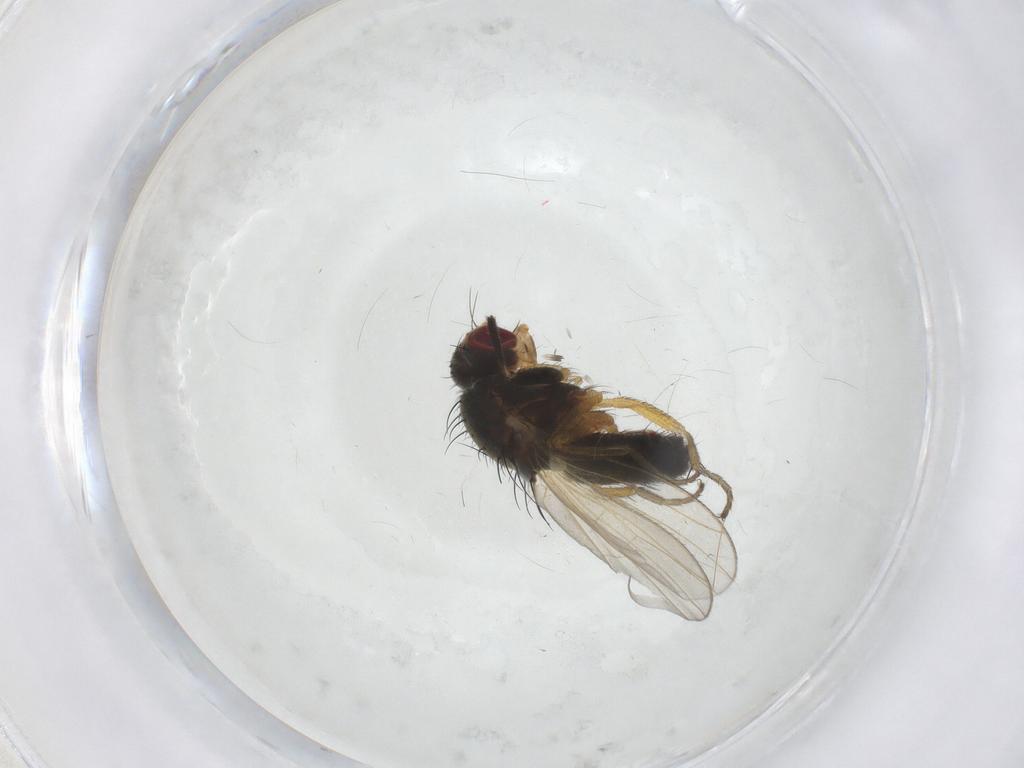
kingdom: Animalia
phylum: Arthropoda
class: Insecta
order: Diptera
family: Heleomyzidae
